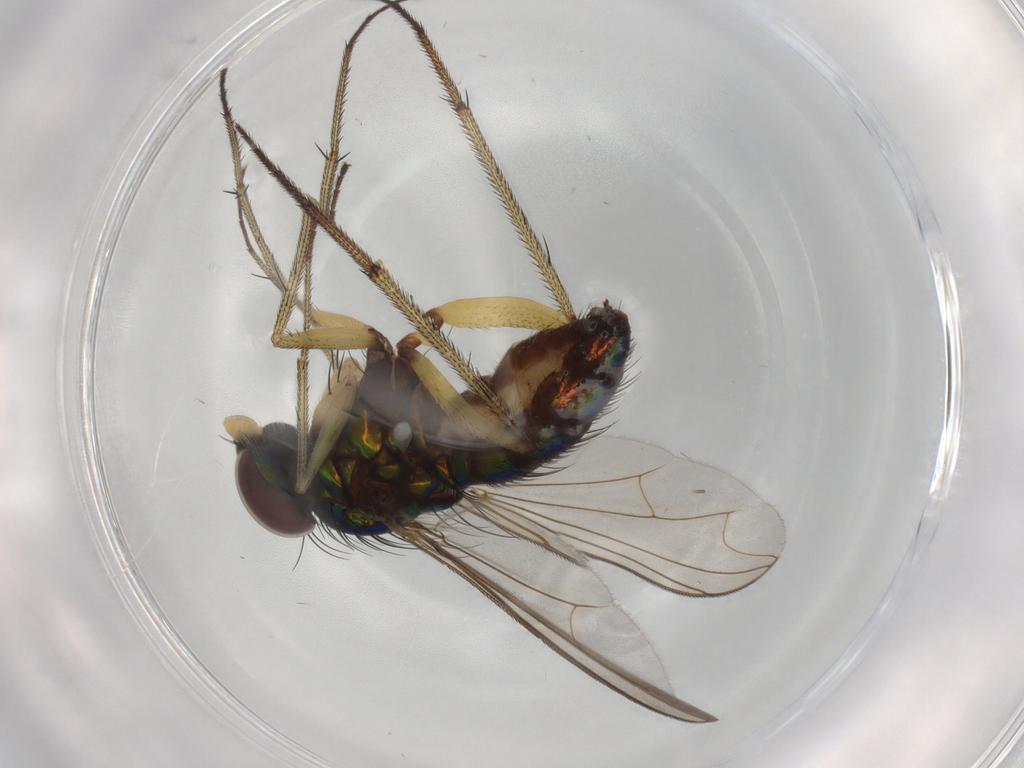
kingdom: Animalia
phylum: Arthropoda
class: Insecta
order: Diptera
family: Dolichopodidae
